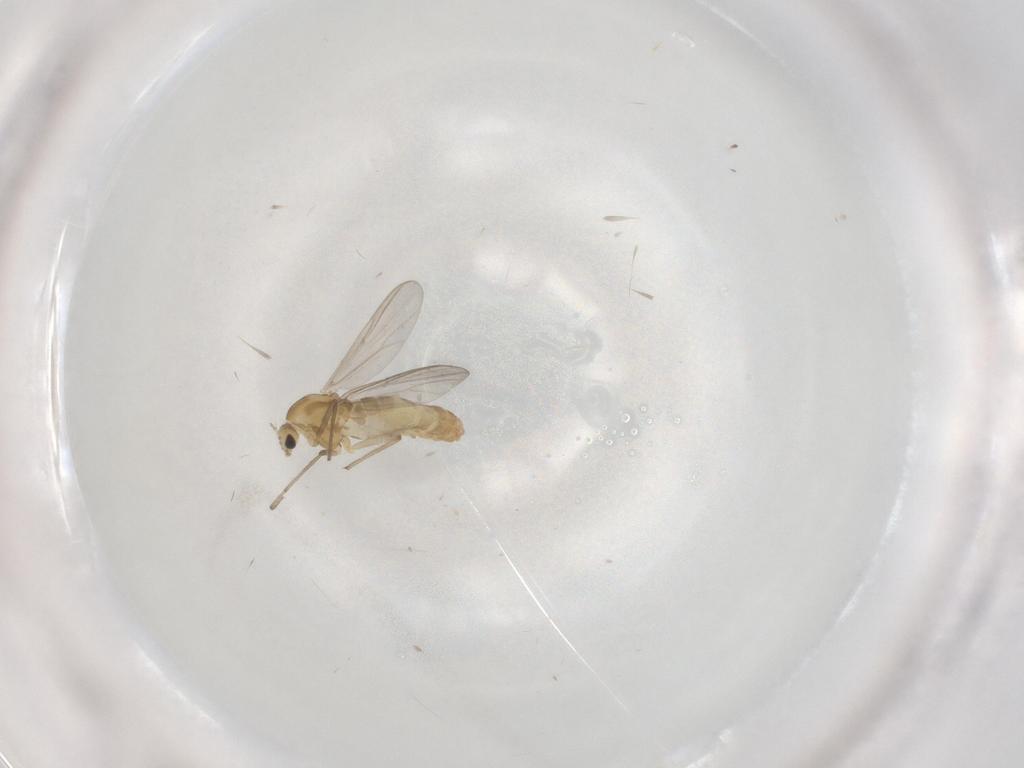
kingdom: Animalia
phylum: Arthropoda
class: Insecta
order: Diptera
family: Chironomidae
